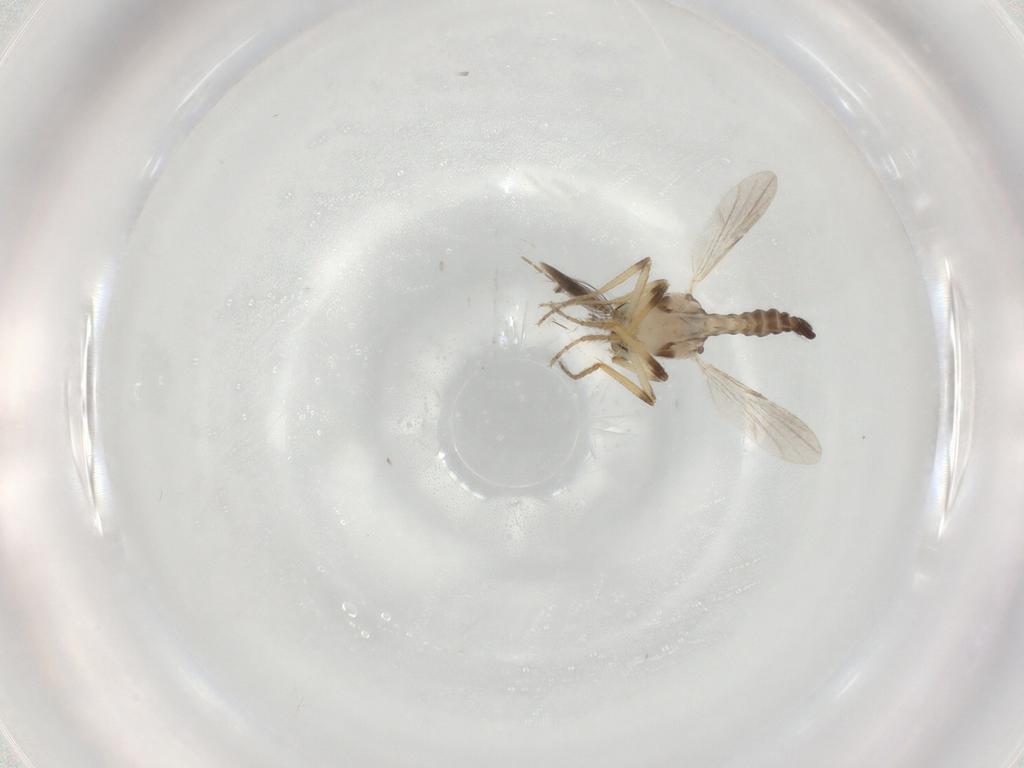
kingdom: Animalia
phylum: Arthropoda
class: Insecta
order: Diptera
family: Ceratopogonidae
